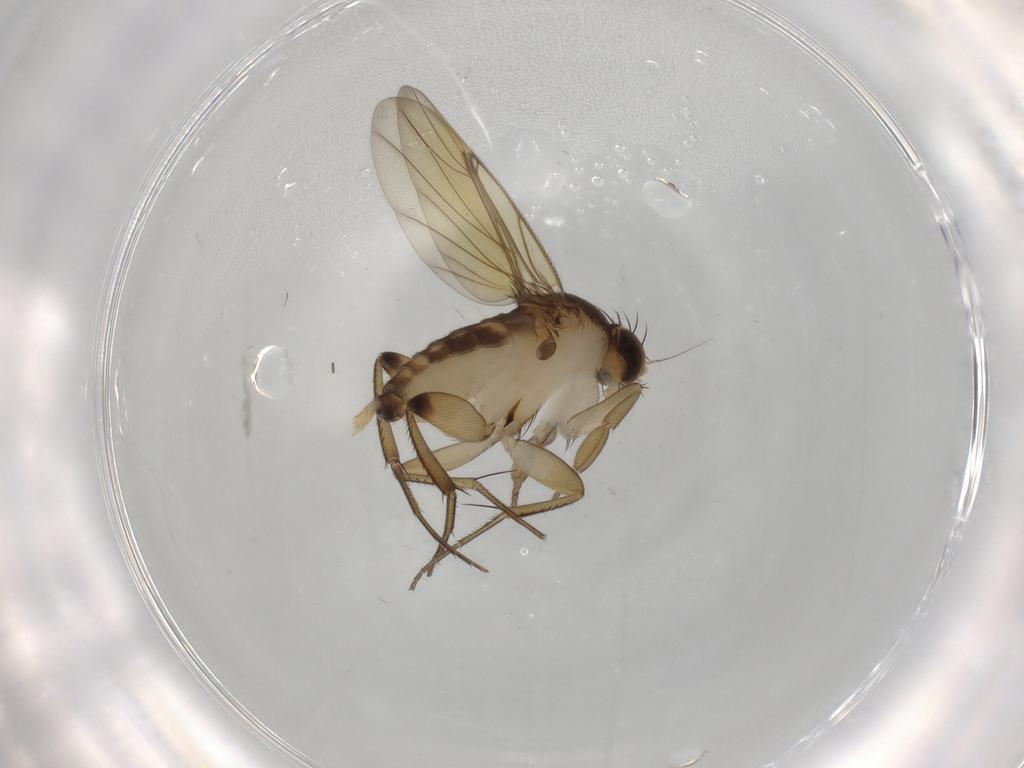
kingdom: Animalia
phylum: Arthropoda
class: Insecta
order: Diptera
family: Phoridae
